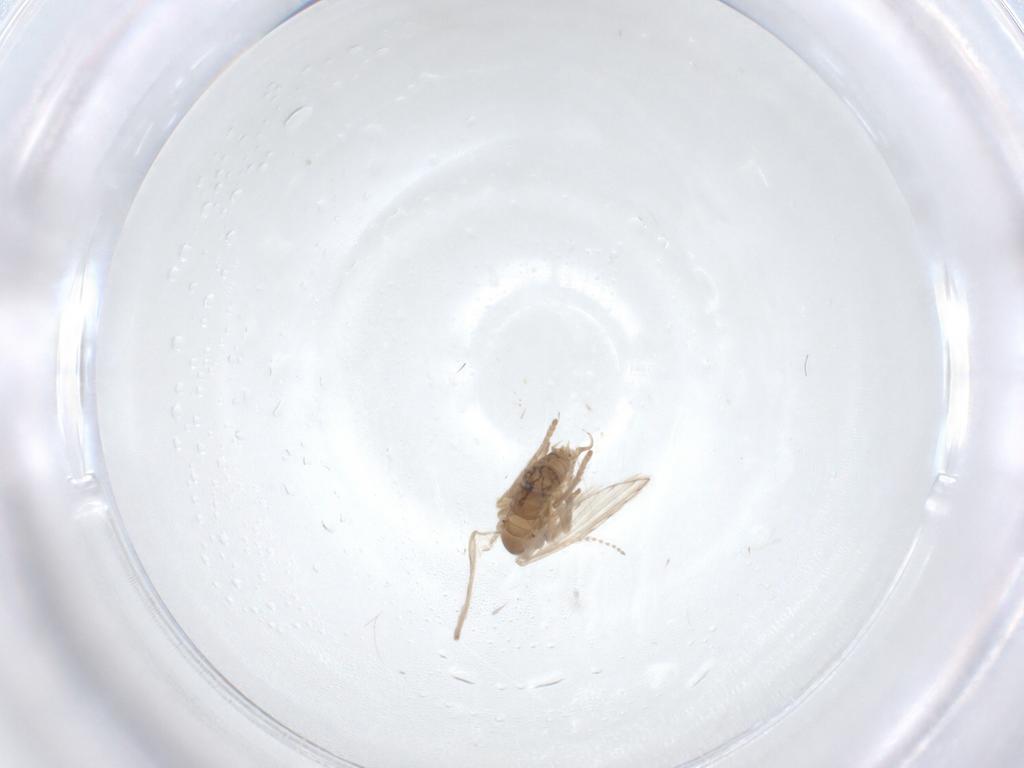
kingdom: Animalia
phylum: Arthropoda
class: Insecta
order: Diptera
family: Psychodidae
